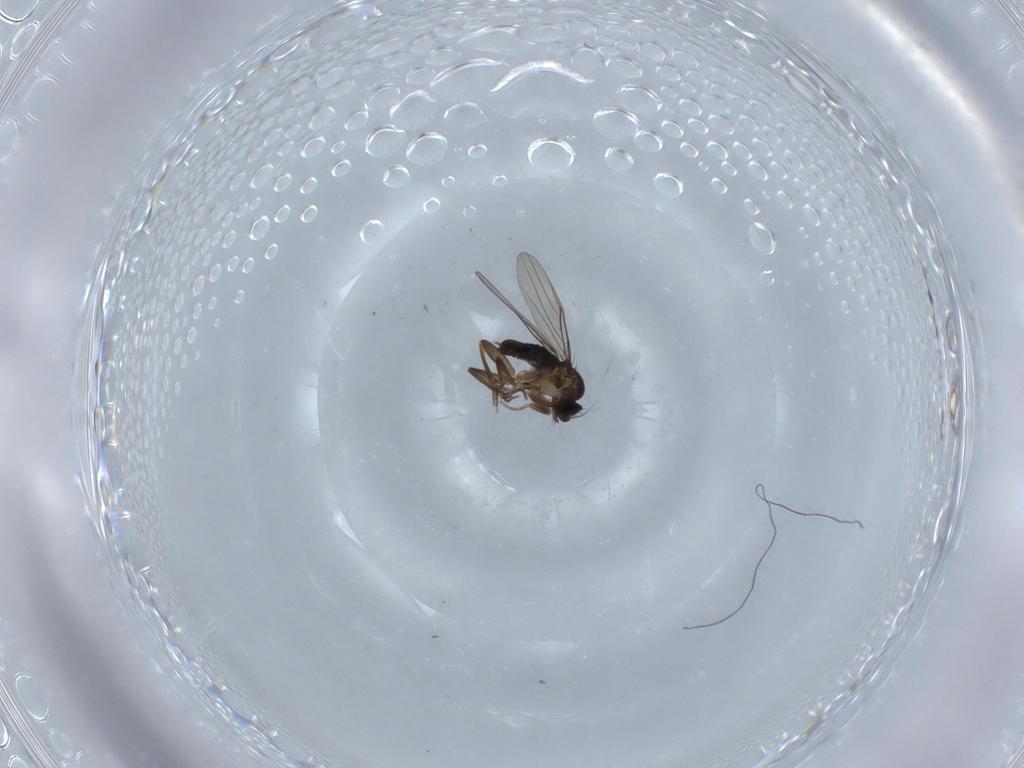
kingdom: Animalia
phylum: Arthropoda
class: Insecta
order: Diptera
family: Phoridae
